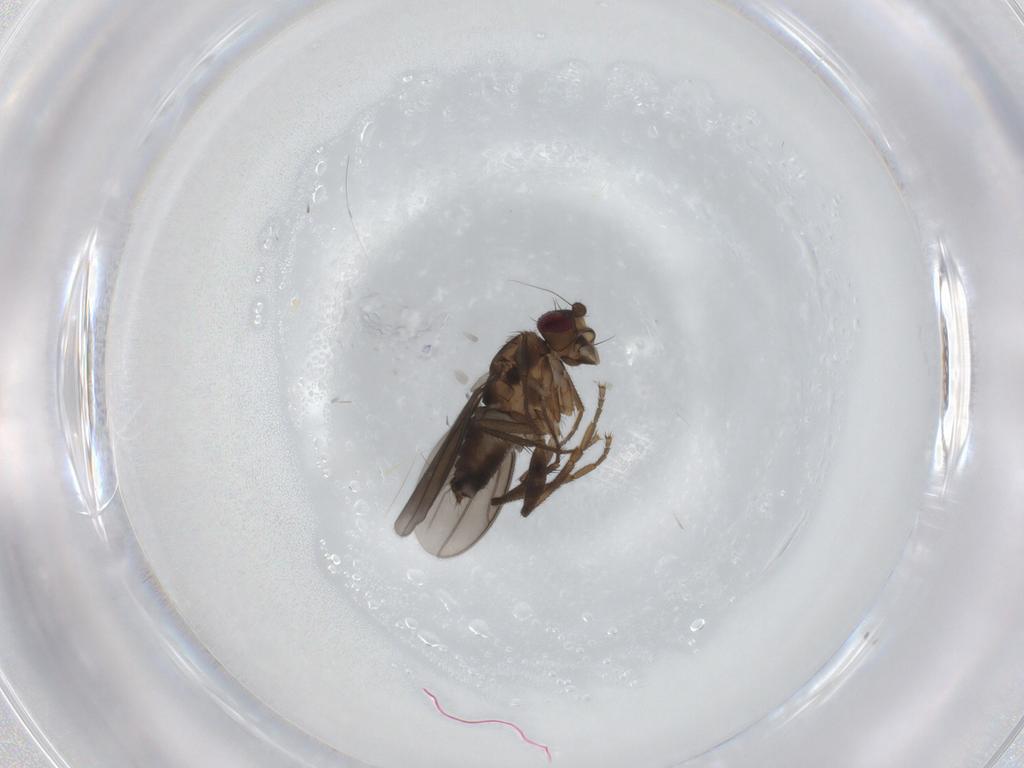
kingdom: Animalia
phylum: Arthropoda
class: Insecta
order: Diptera
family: Sphaeroceridae
